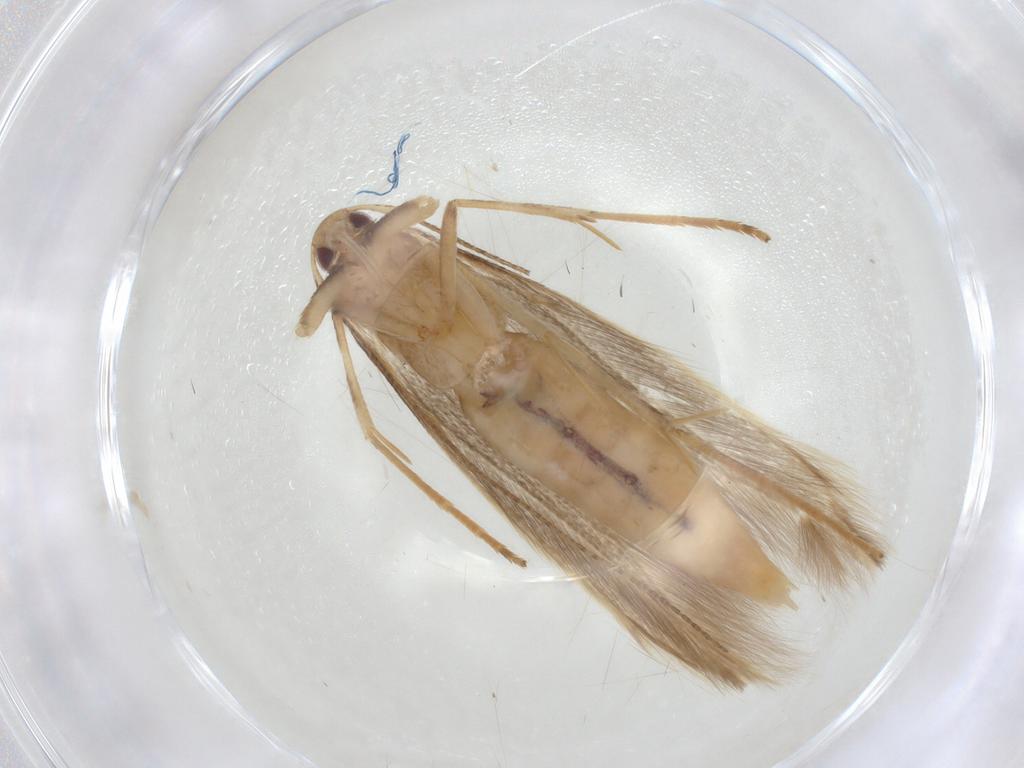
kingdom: Animalia
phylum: Arthropoda
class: Insecta
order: Lepidoptera
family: Cosmopterigidae
